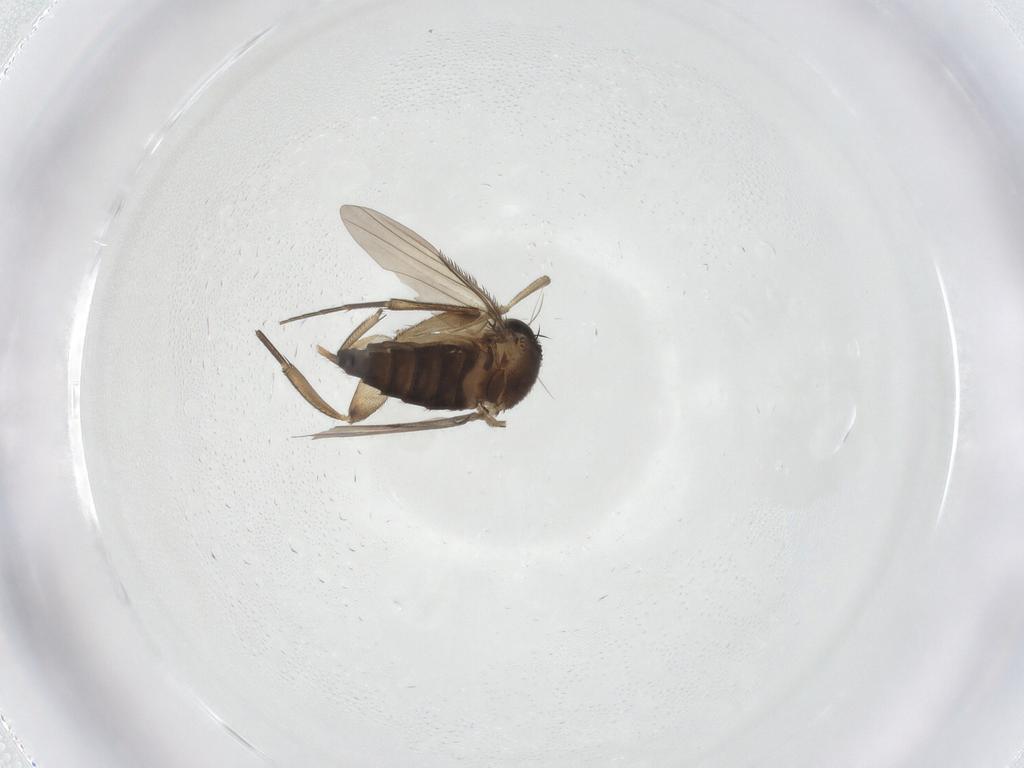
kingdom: Animalia
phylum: Arthropoda
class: Insecta
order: Diptera
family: Phoridae
